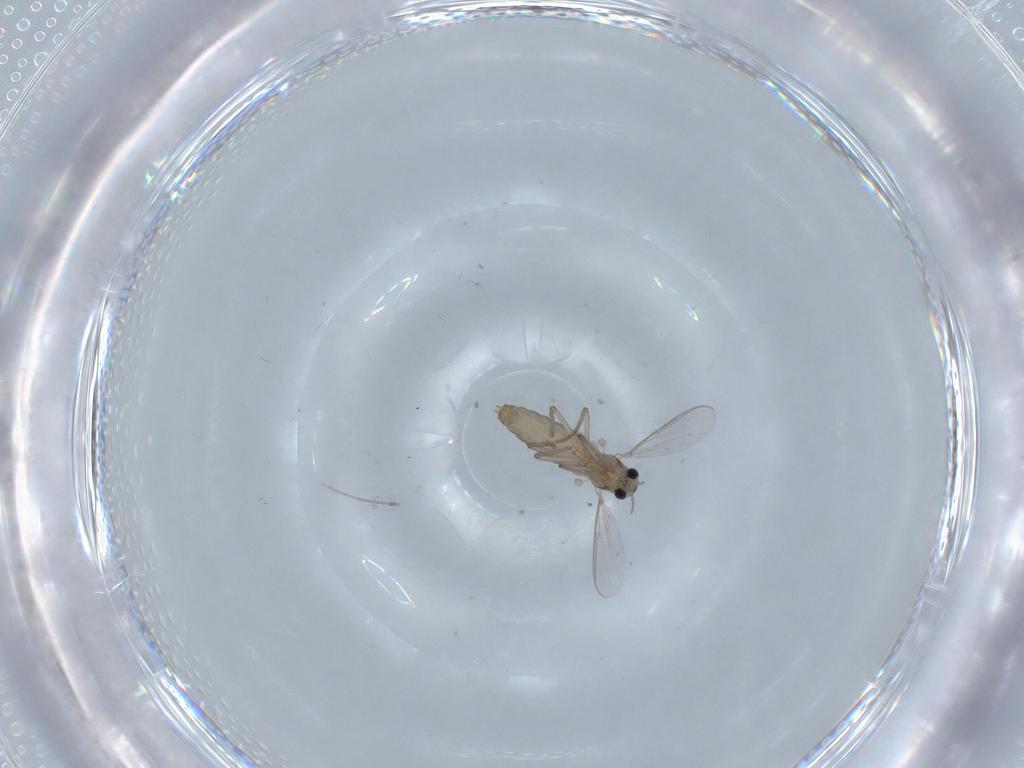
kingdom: Animalia
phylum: Arthropoda
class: Insecta
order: Diptera
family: Chironomidae
